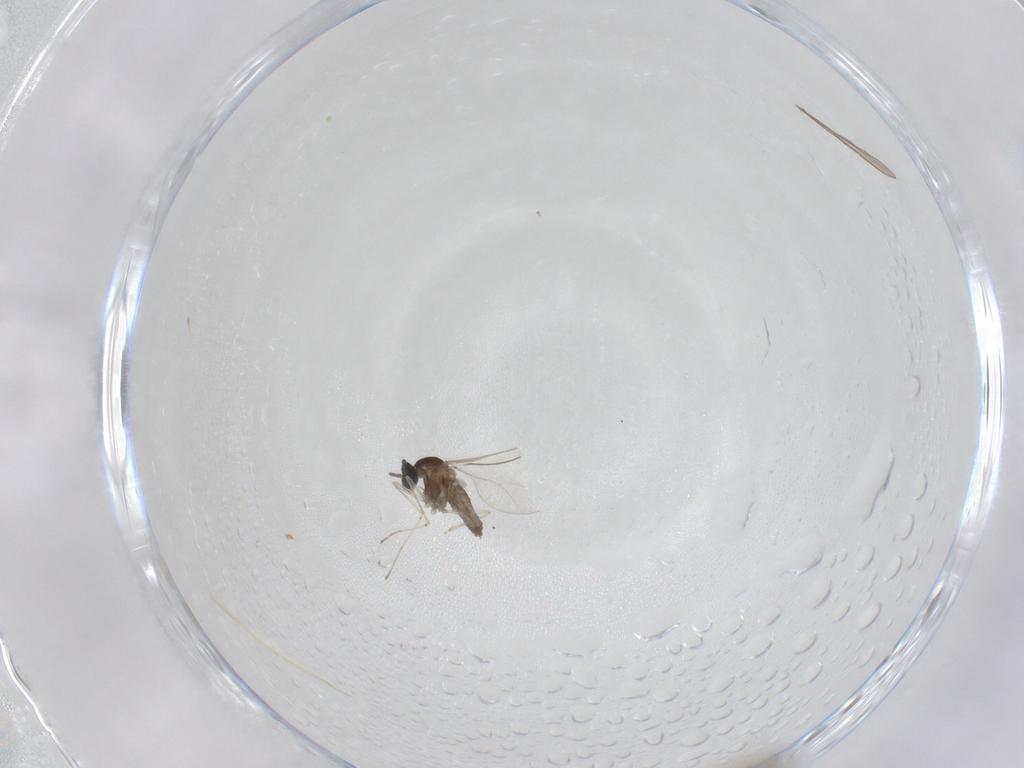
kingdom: Animalia
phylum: Arthropoda
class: Insecta
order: Diptera
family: Cecidomyiidae
